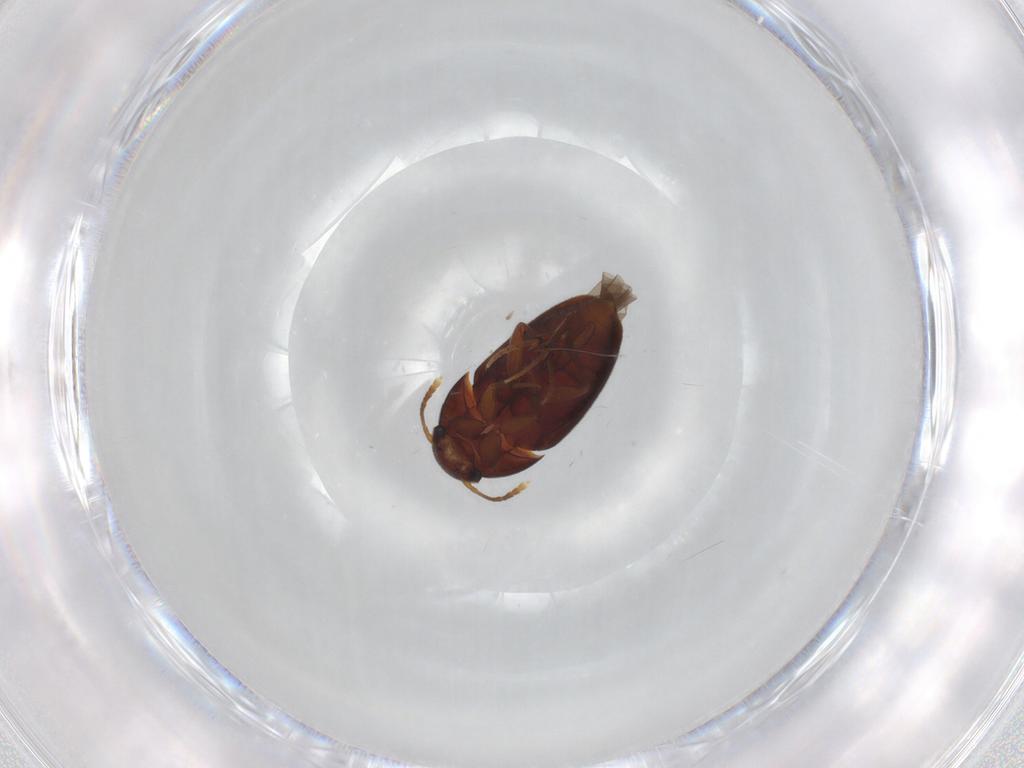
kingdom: Animalia
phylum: Arthropoda
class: Insecta
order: Coleoptera
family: Leiodidae
